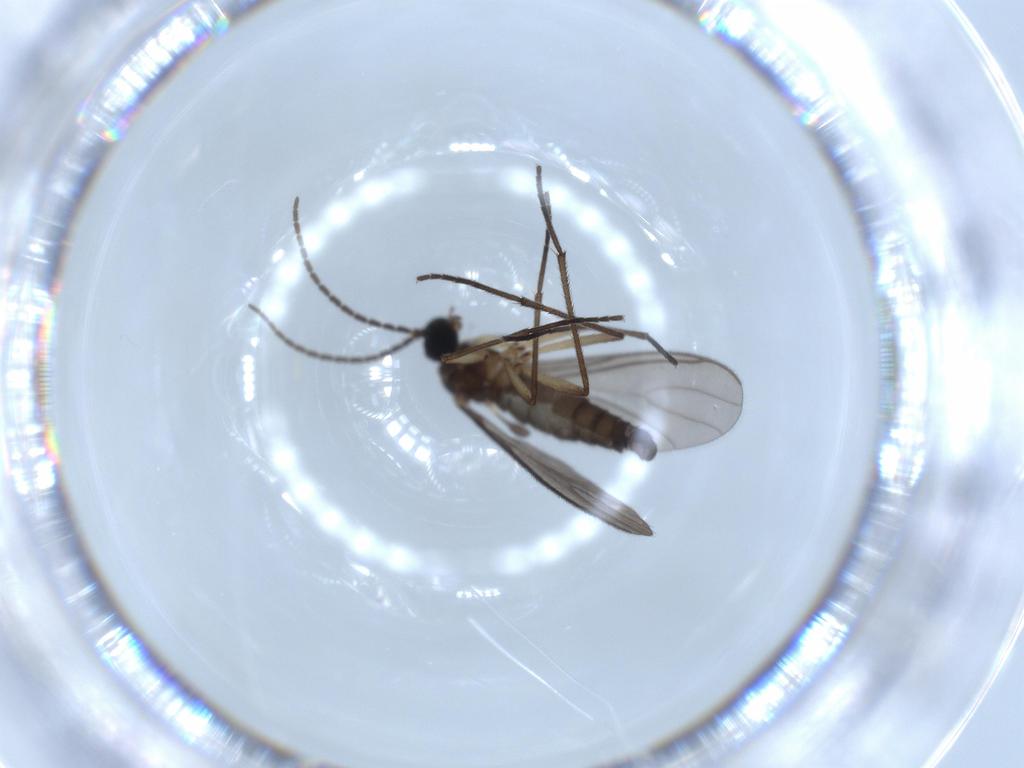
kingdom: Animalia
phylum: Arthropoda
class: Insecta
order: Diptera
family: Sciaridae
